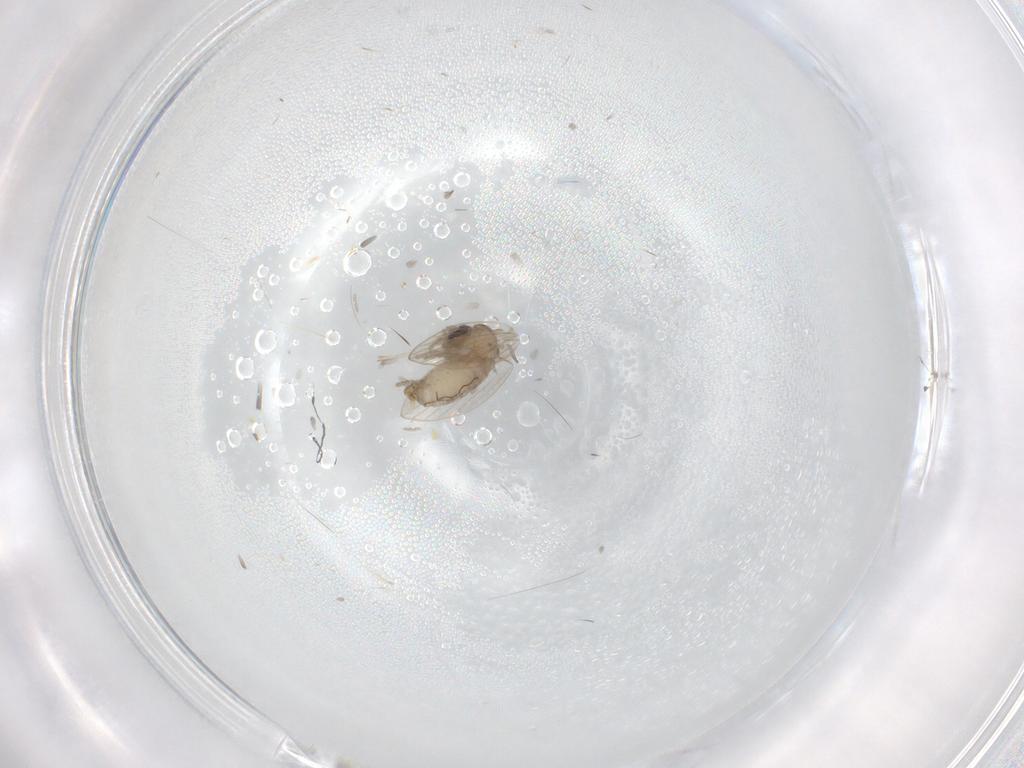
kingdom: Animalia
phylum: Arthropoda
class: Insecta
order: Diptera
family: Psychodidae
